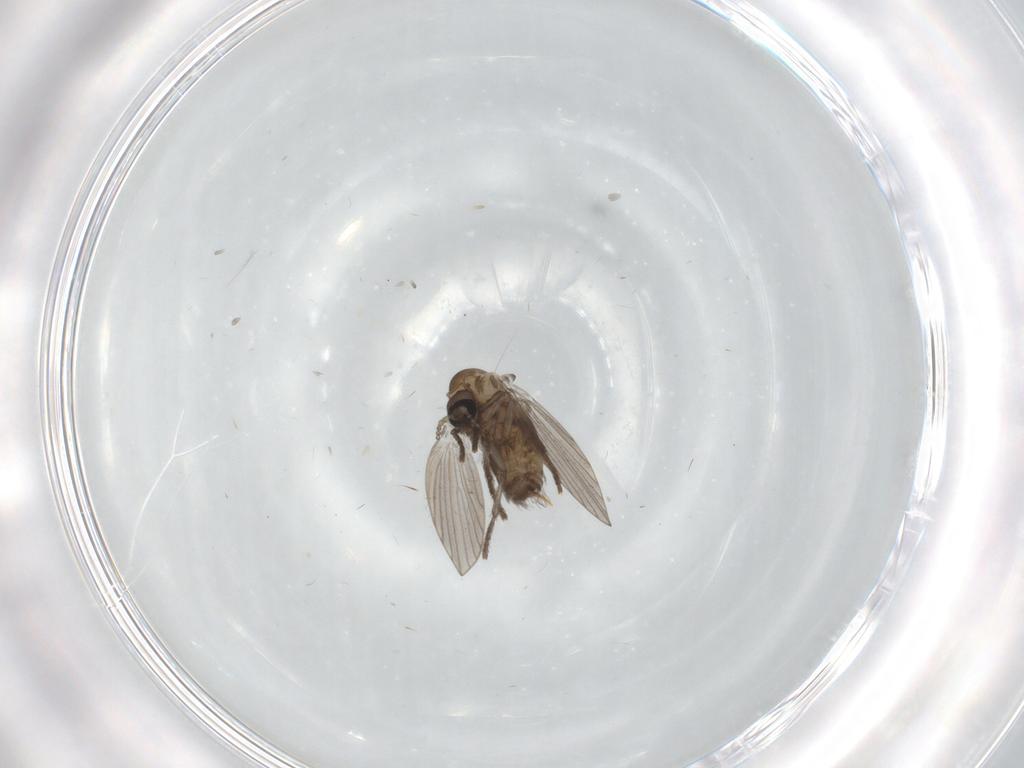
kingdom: Animalia
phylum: Arthropoda
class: Insecta
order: Diptera
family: Psychodidae
